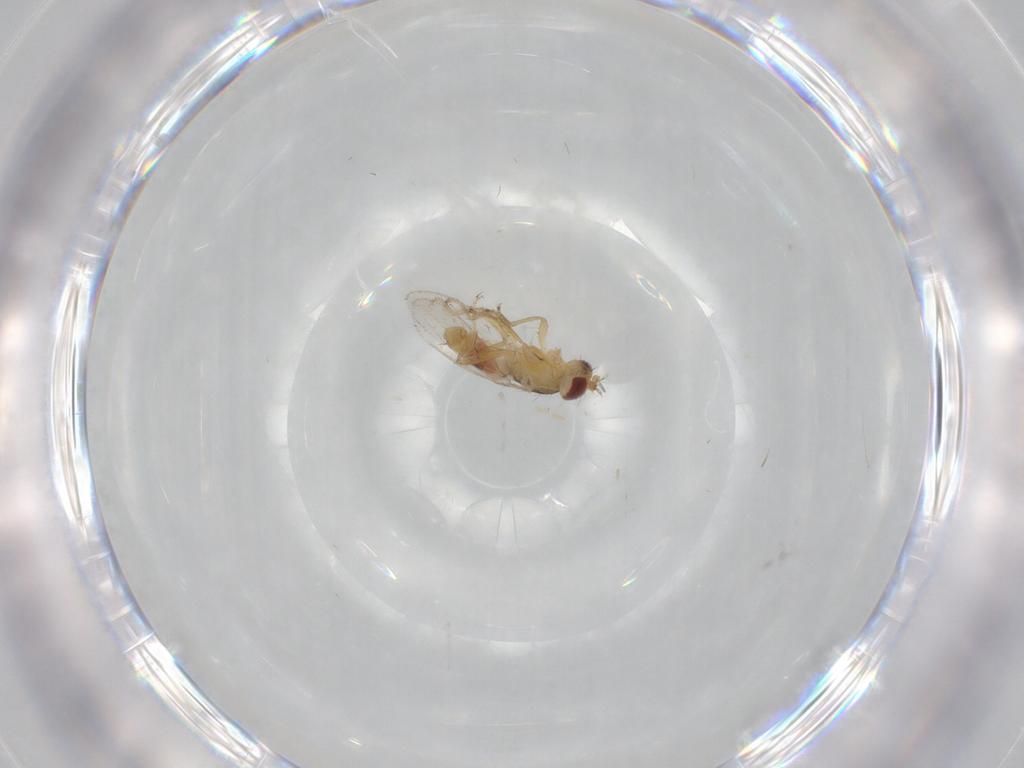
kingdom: Animalia
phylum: Arthropoda
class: Insecta
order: Diptera
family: Periscelididae
